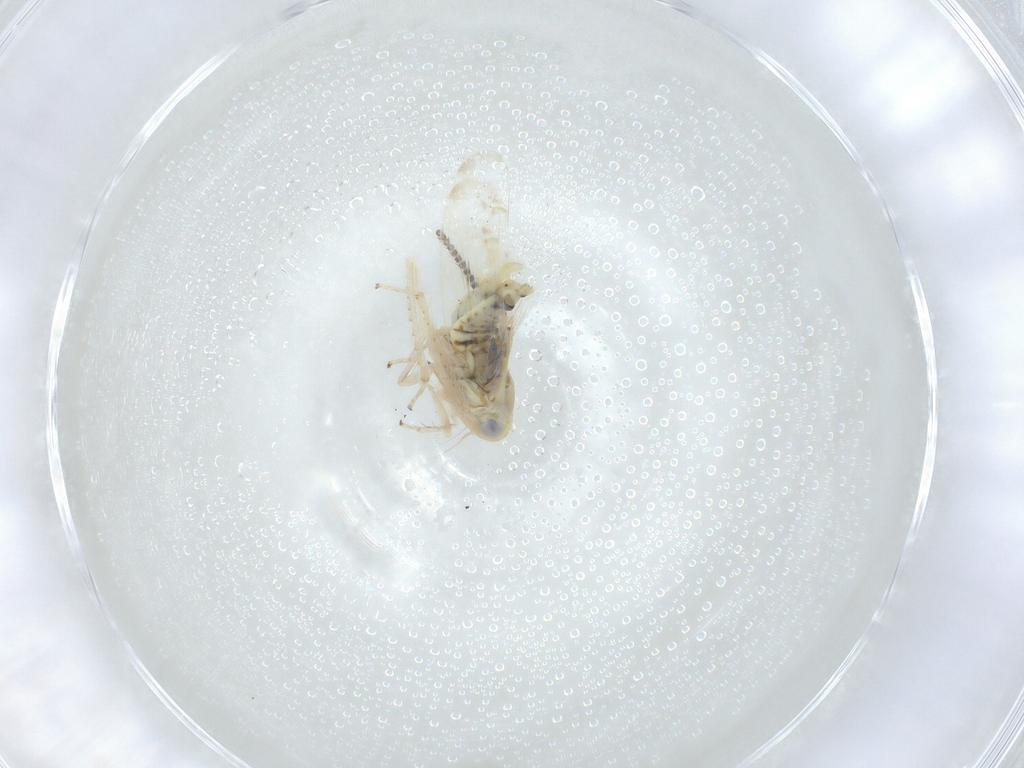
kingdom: Animalia
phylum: Arthropoda
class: Insecta
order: Hemiptera
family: Cicadellidae
